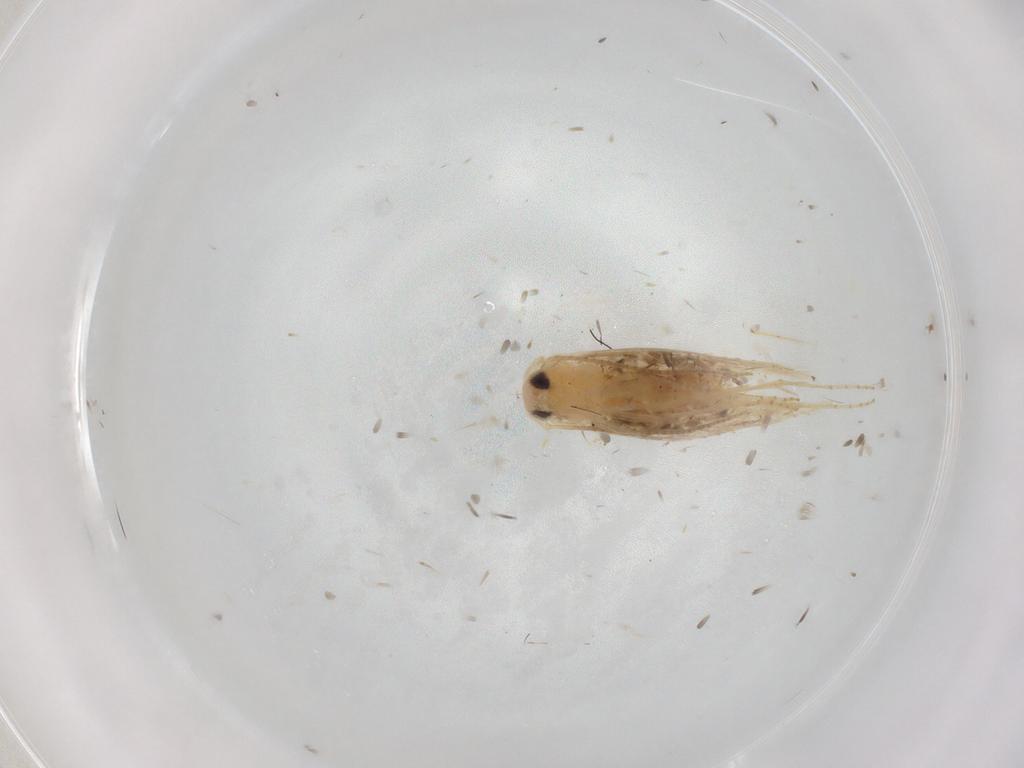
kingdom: Animalia
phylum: Arthropoda
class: Insecta
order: Lepidoptera
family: Bucculatricidae
